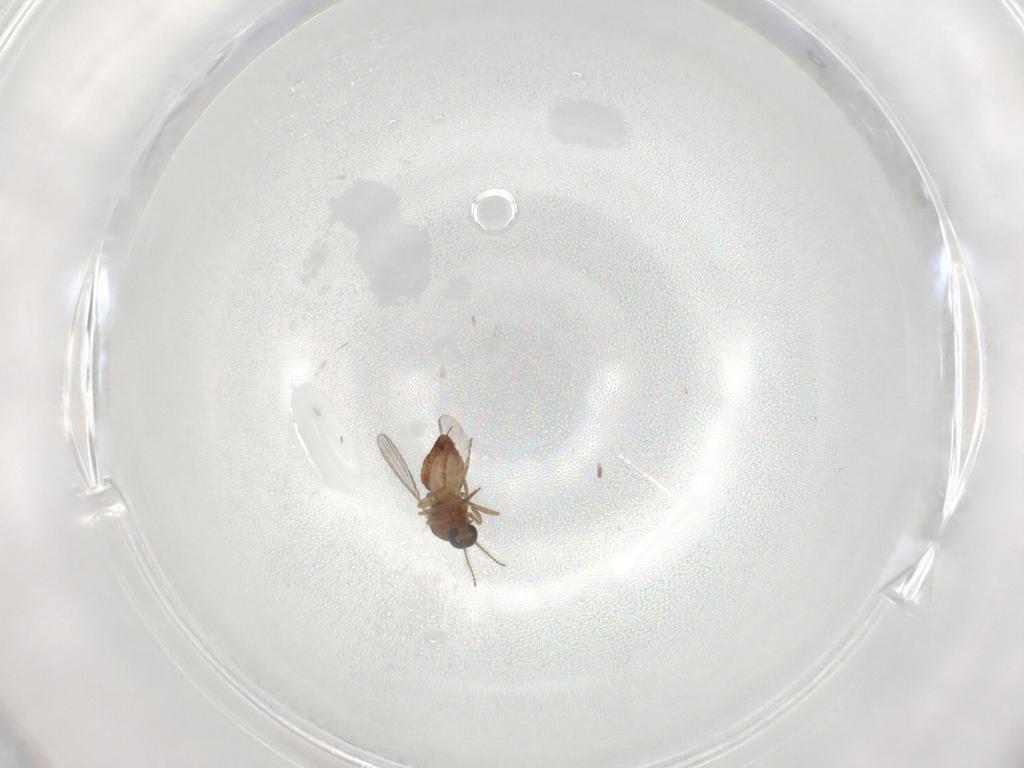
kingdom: Animalia
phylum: Arthropoda
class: Insecta
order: Diptera
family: Ceratopogonidae
